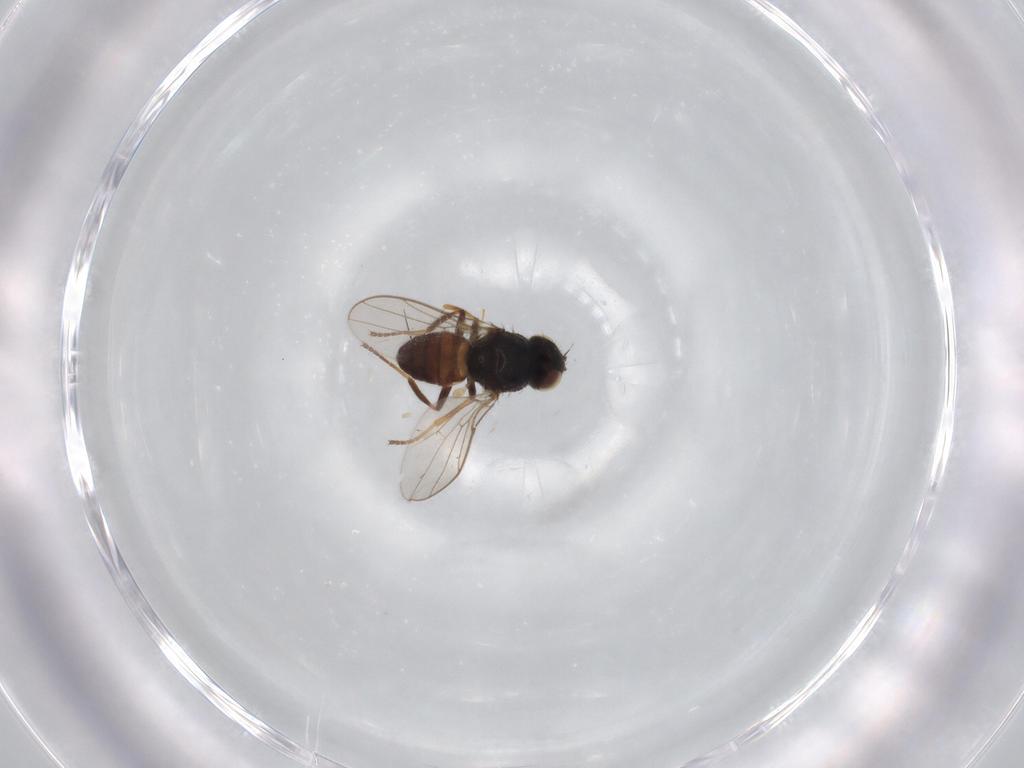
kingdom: Animalia
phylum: Arthropoda
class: Insecta
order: Diptera
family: Chloropidae
